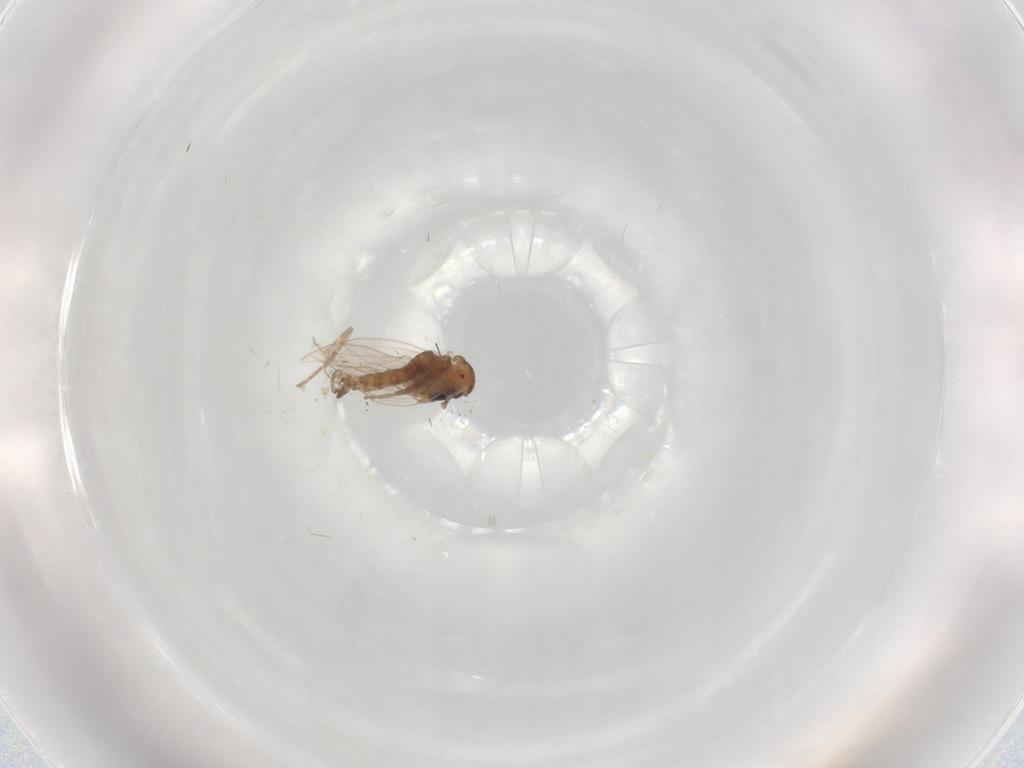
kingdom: Animalia
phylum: Arthropoda
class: Insecta
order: Diptera
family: Psychodidae
